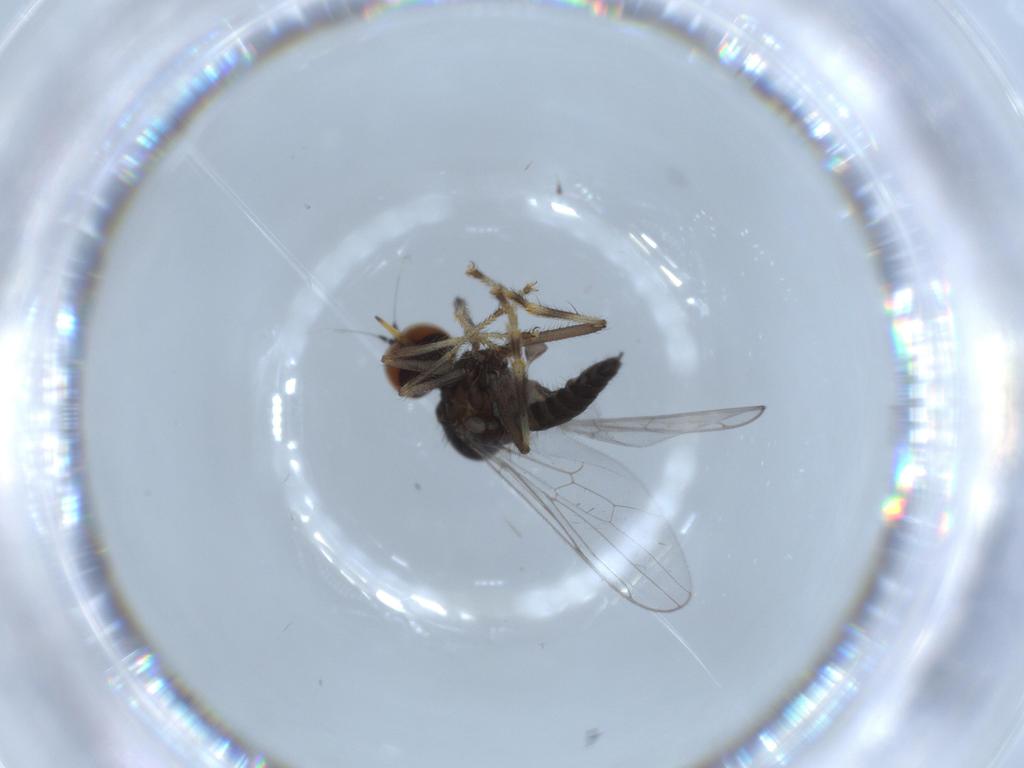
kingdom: Animalia
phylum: Arthropoda
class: Insecta
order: Diptera
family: Hybotidae
